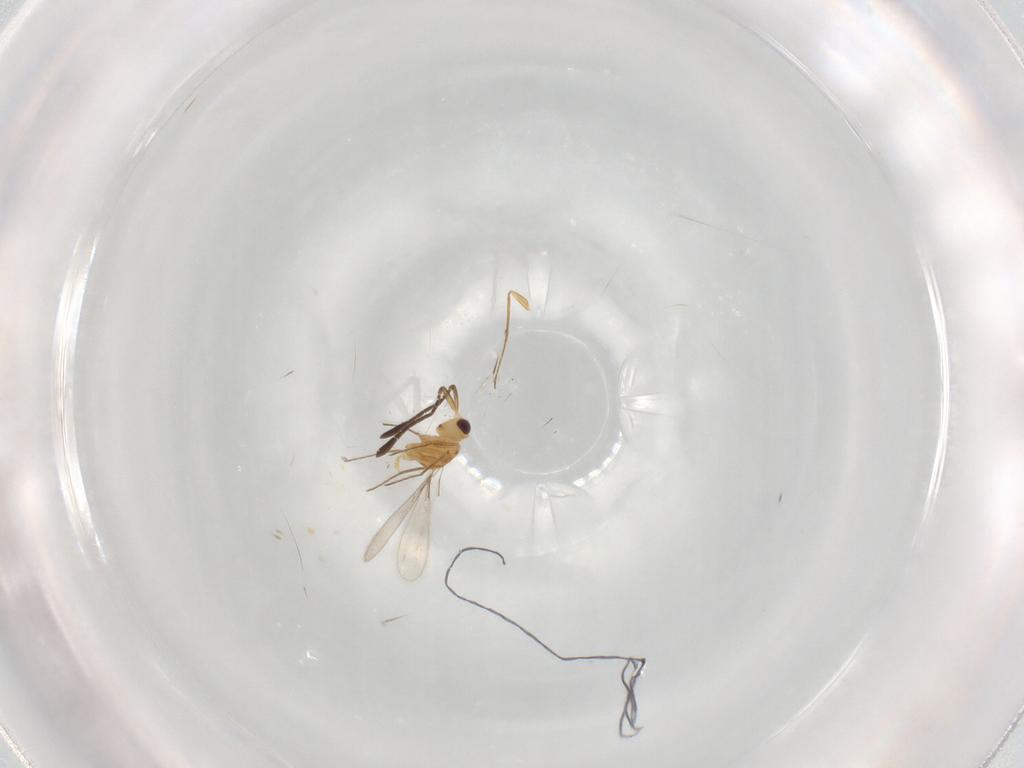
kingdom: Animalia
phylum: Arthropoda
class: Insecta
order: Hymenoptera
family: Mymaridae
